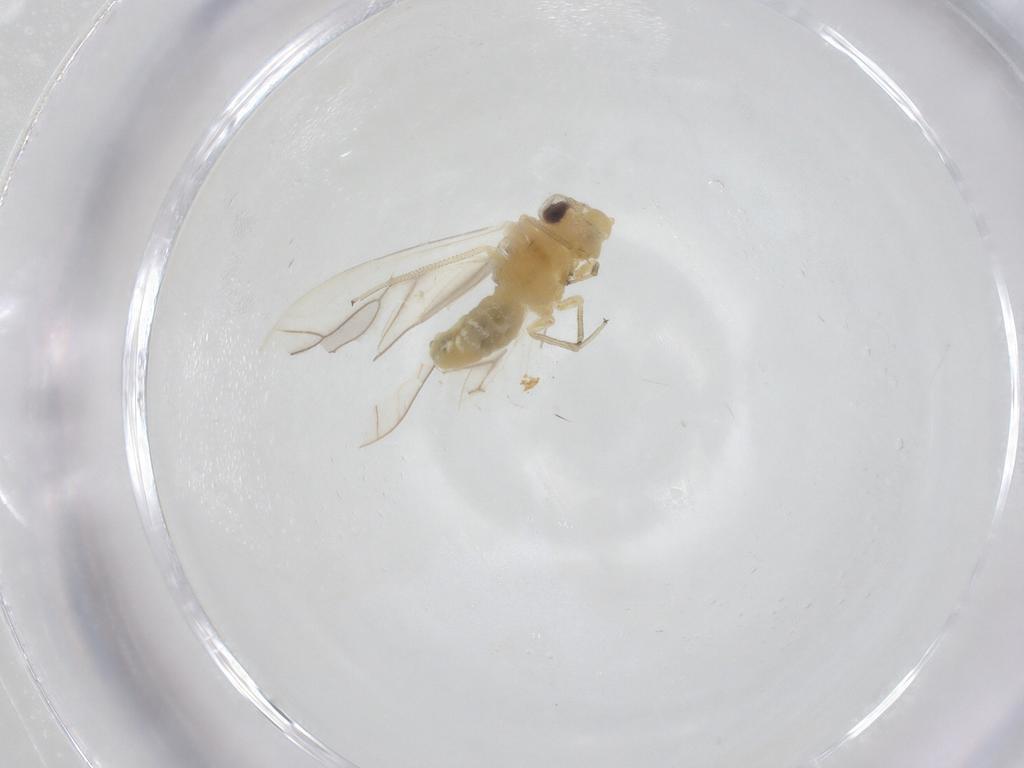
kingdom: Animalia
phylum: Arthropoda
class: Insecta
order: Psocodea
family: Caeciliusidae
